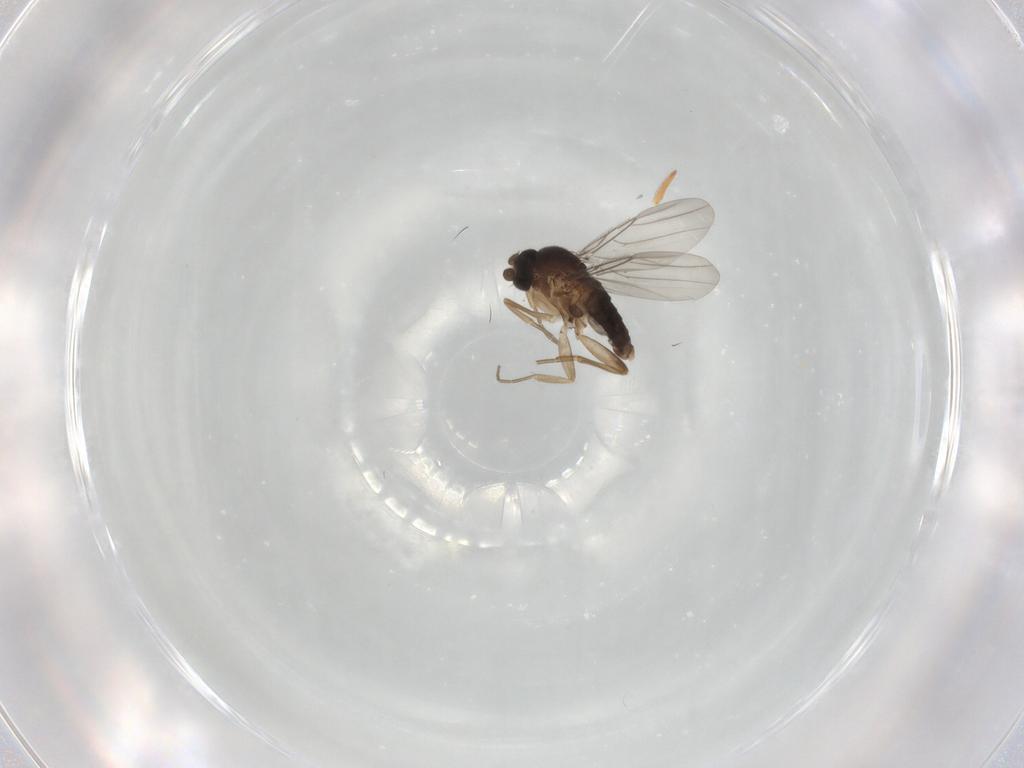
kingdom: Animalia
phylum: Arthropoda
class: Insecta
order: Diptera
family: Phoridae
